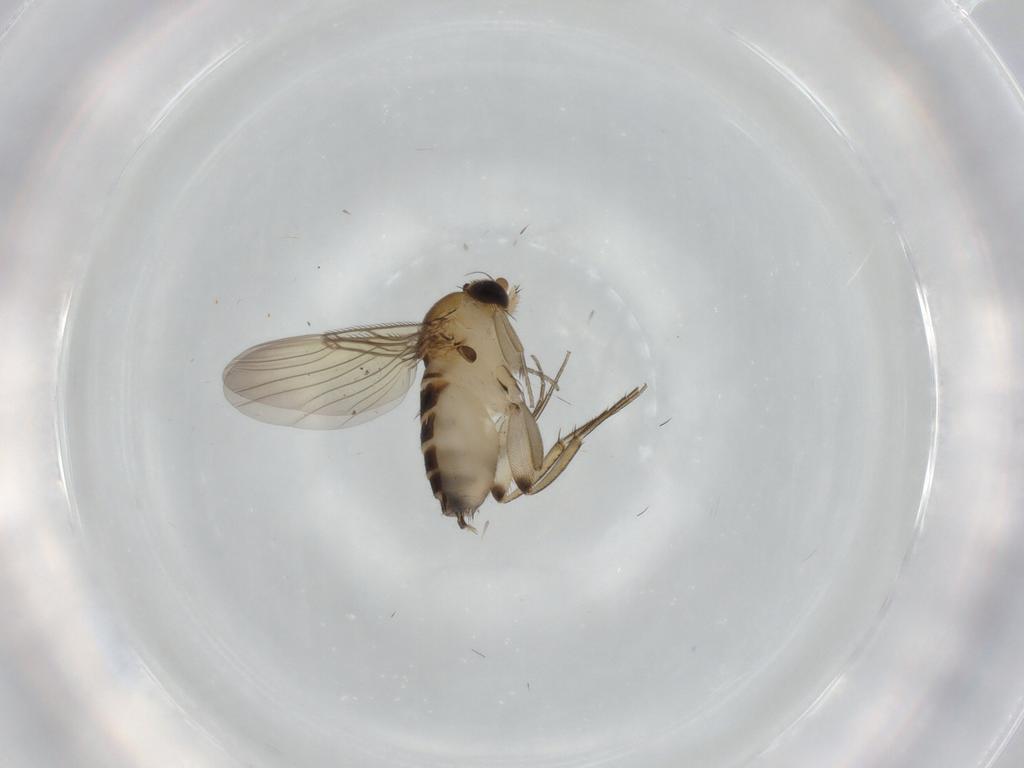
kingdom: Animalia
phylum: Arthropoda
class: Insecta
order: Diptera
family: Phoridae
